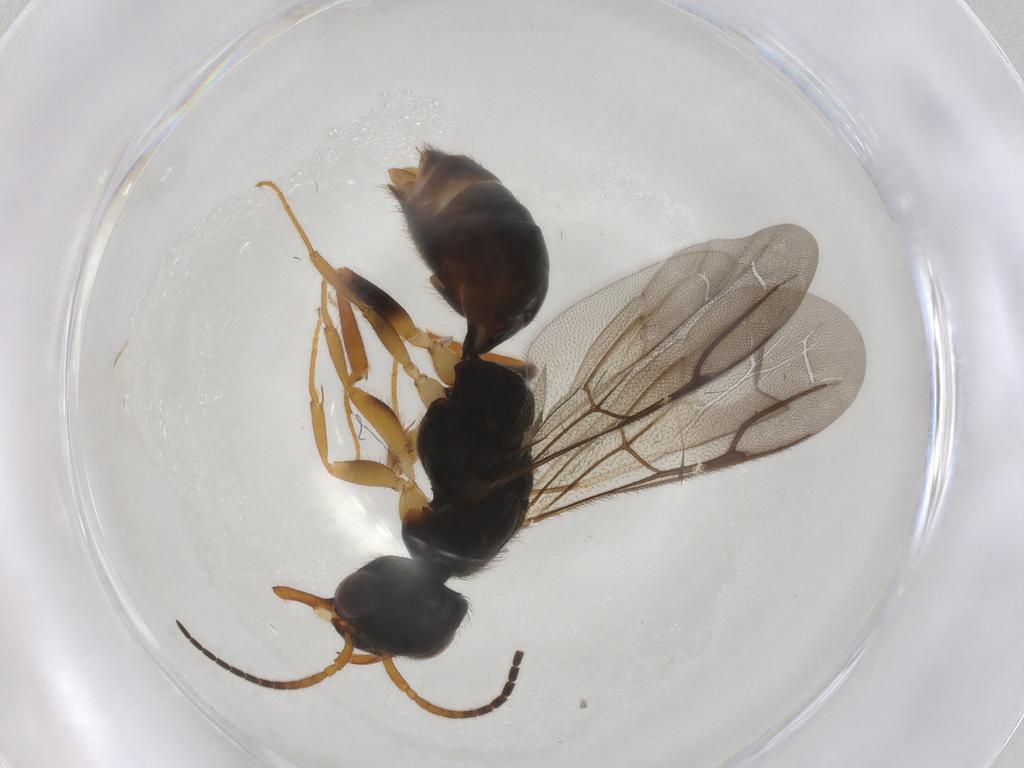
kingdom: Animalia
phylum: Arthropoda
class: Insecta
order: Hymenoptera
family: Bethylidae
